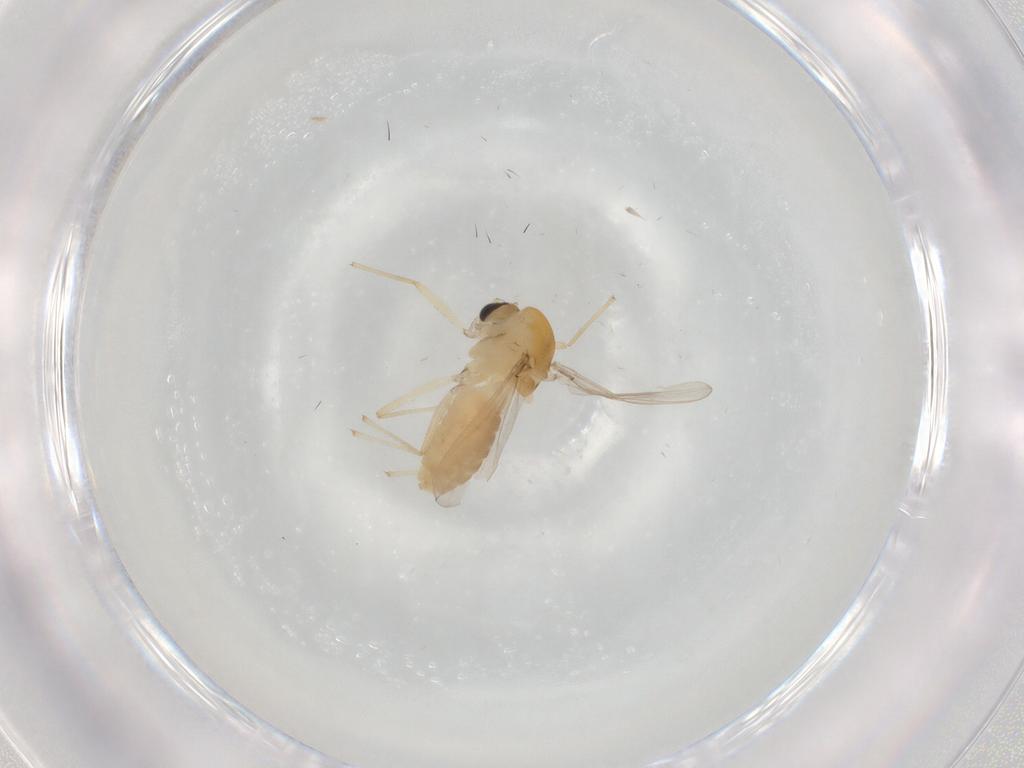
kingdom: Animalia
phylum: Arthropoda
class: Insecta
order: Diptera
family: Chironomidae
